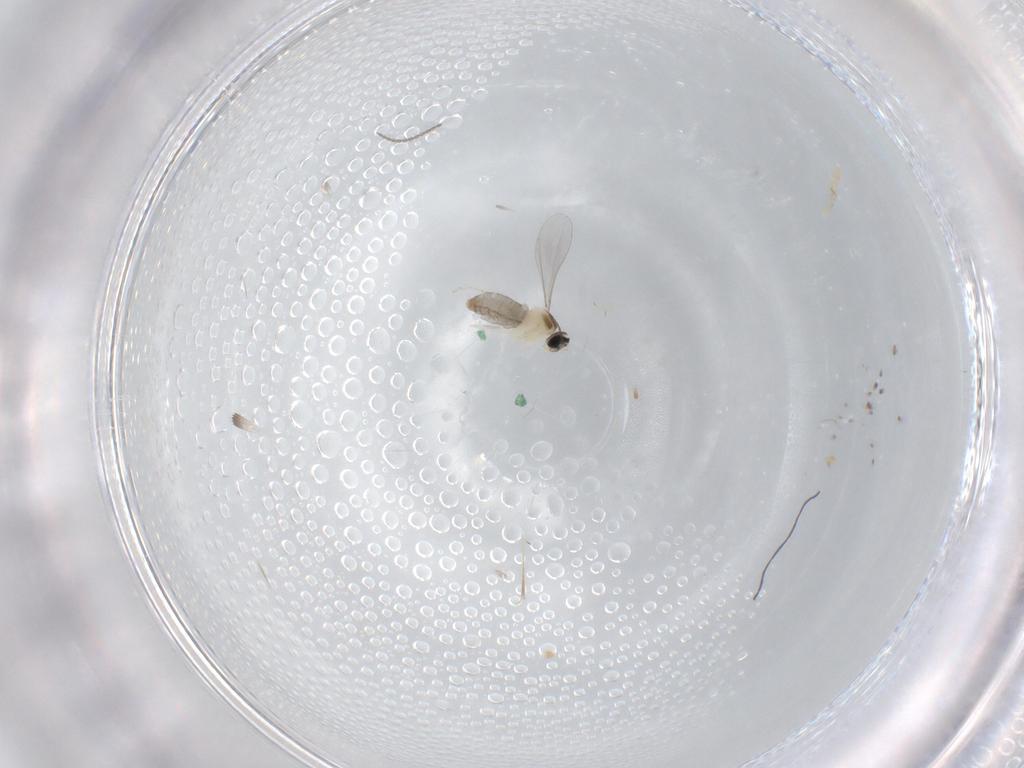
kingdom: Animalia
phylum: Arthropoda
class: Insecta
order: Diptera
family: Cecidomyiidae
